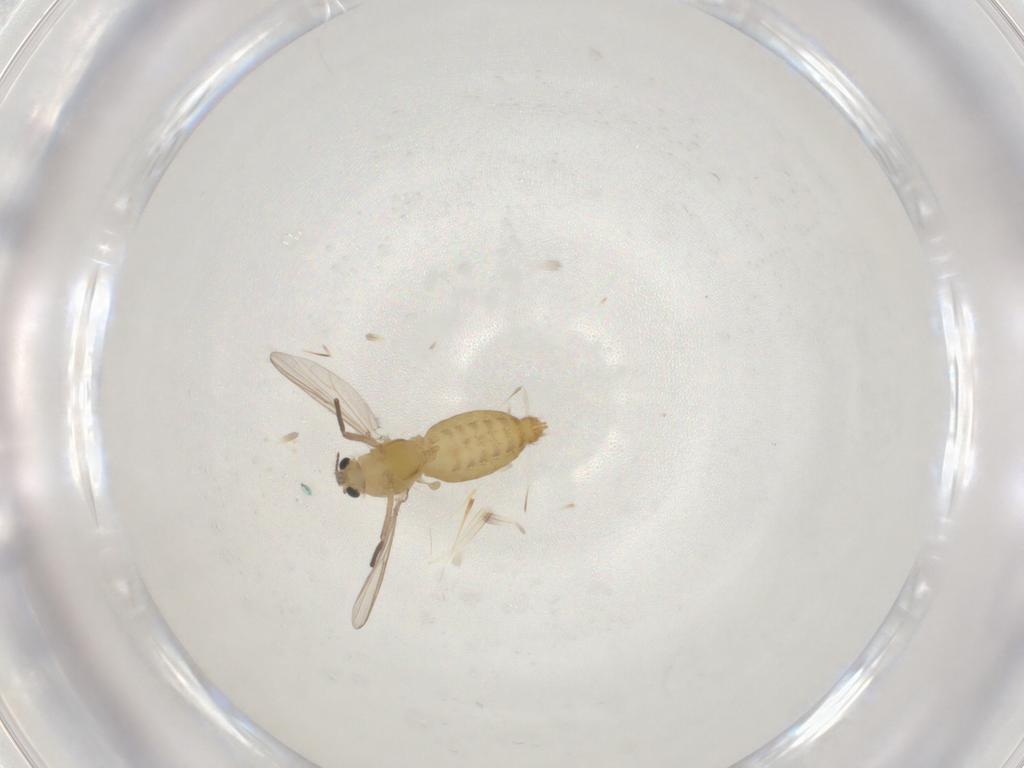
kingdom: Animalia
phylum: Arthropoda
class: Insecta
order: Diptera
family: Chironomidae
